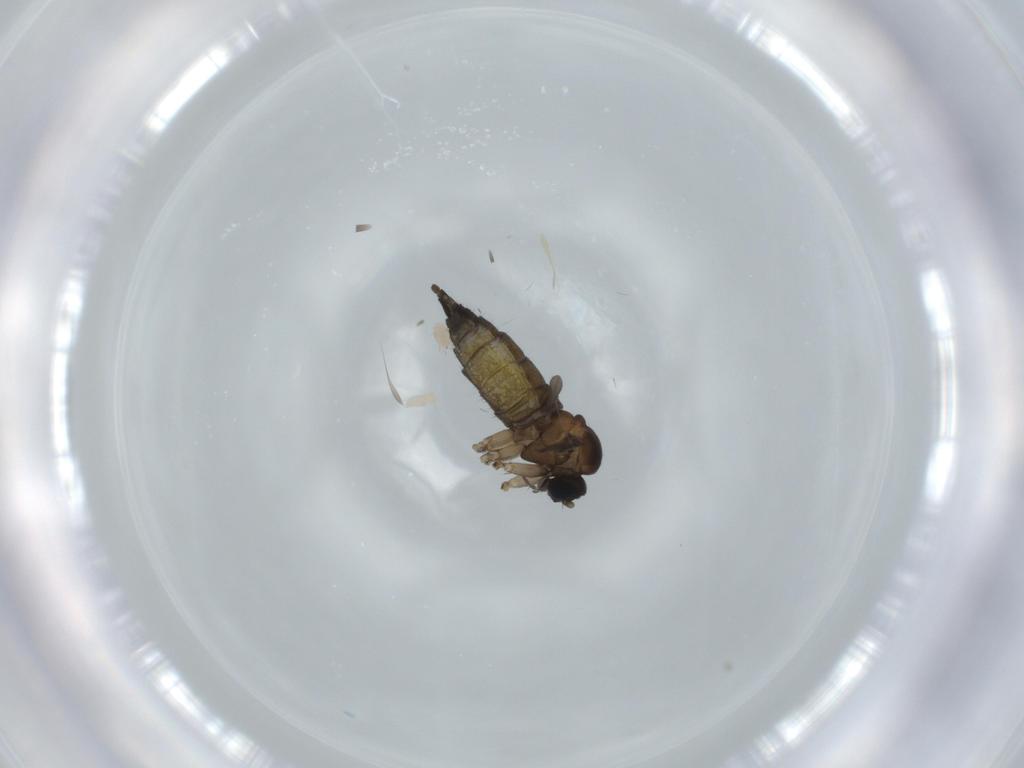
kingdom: Animalia
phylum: Arthropoda
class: Insecta
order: Diptera
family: Sciaridae
